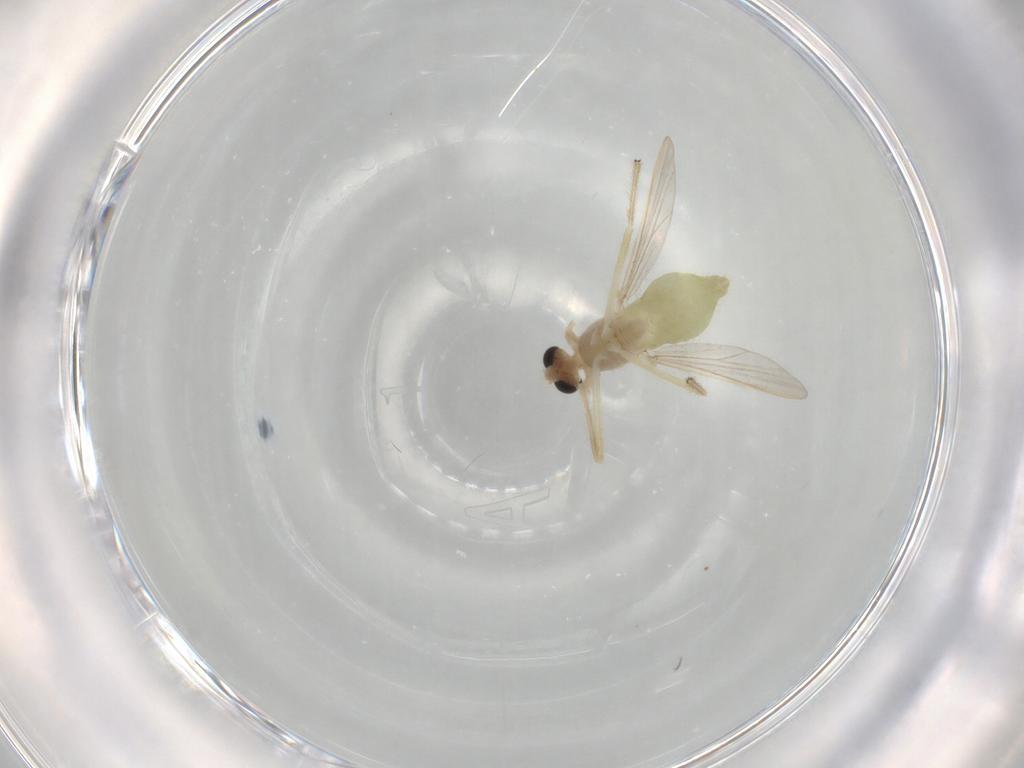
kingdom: Animalia
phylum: Arthropoda
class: Insecta
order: Diptera
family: Chironomidae
